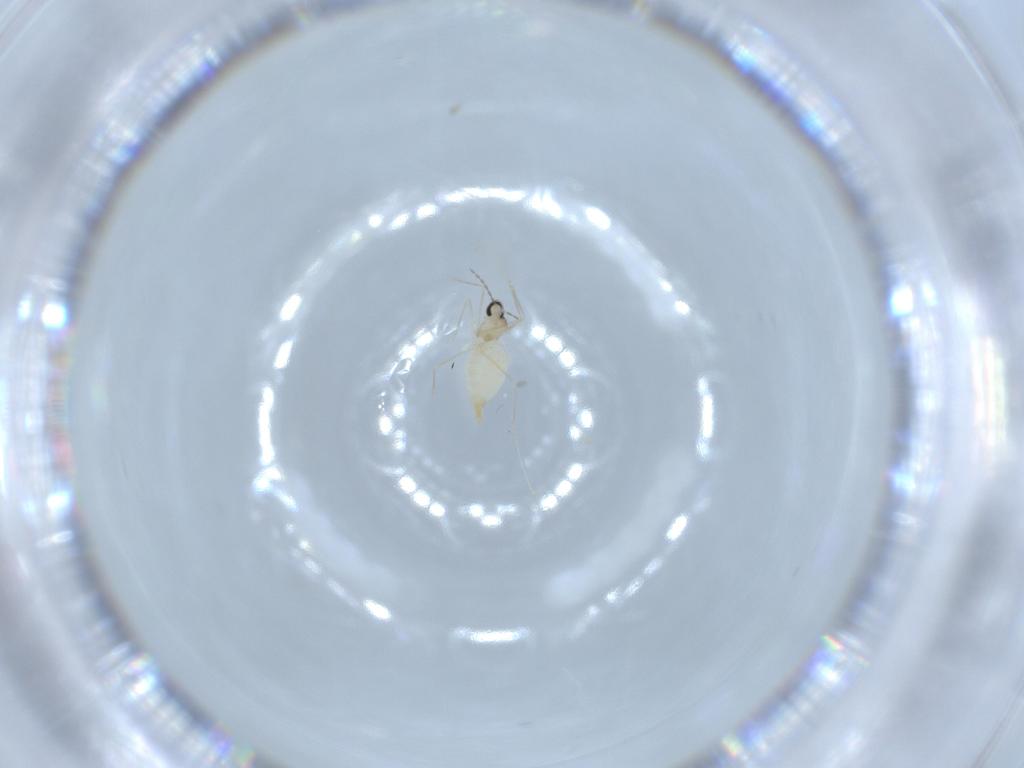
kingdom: Animalia
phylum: Arthropoda
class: Insecta
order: Diptera
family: Cecidomyiidae
